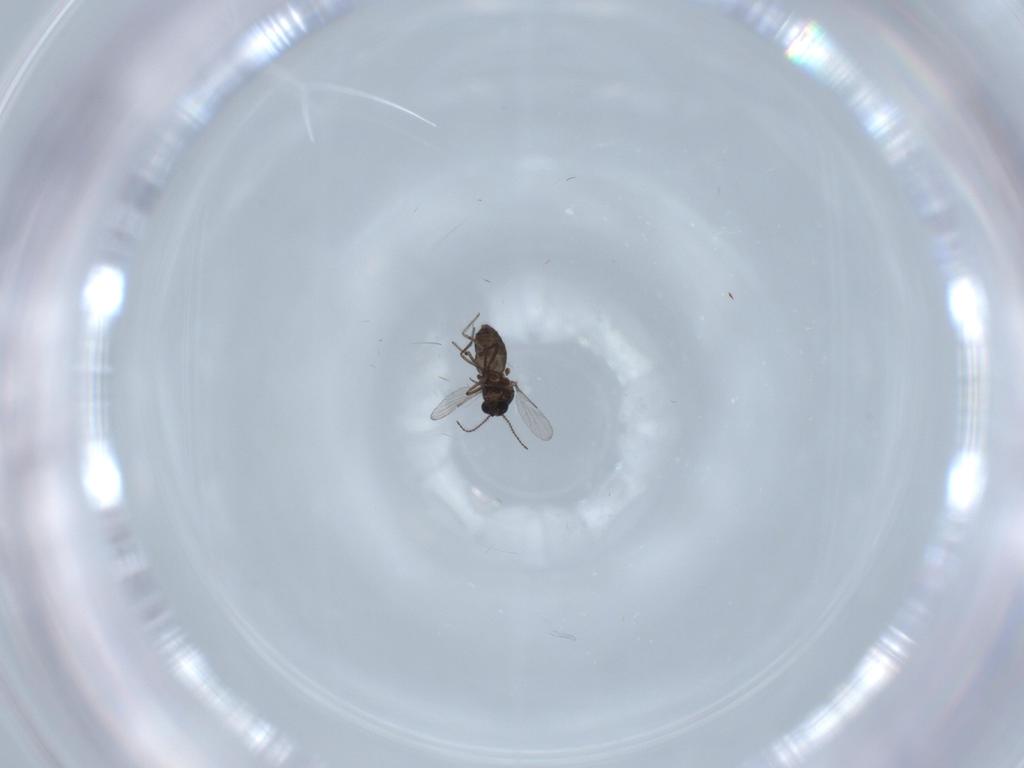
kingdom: Animalia
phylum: Arthropoda
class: Insecta
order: Diptera
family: Ceratopogonidae
